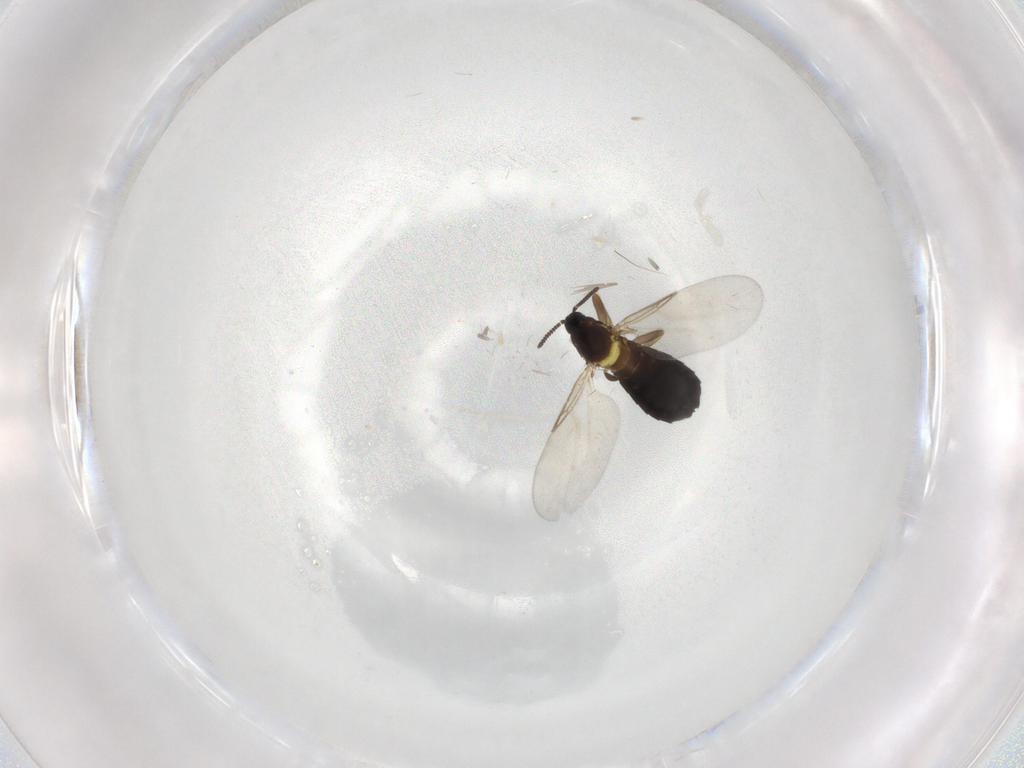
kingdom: Animalia
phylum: Arthropoda
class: Insecta
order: Diptera
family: Scatopsidae
